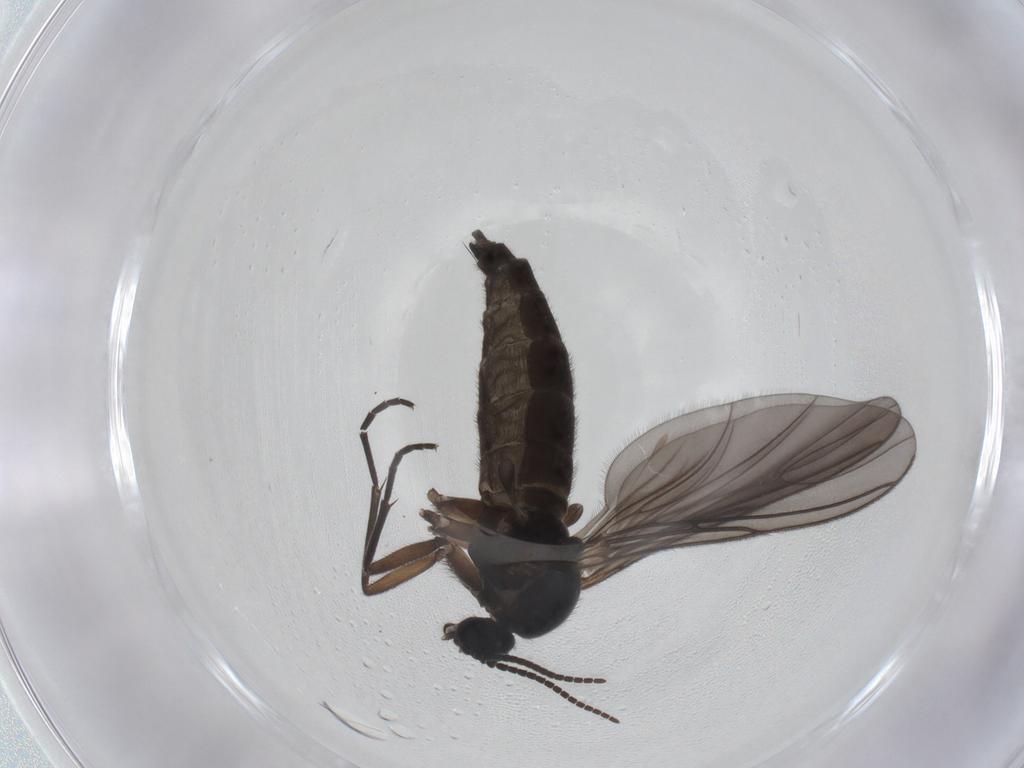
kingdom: Animalia
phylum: Arthropoda
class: Insecta
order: Diptera
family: Sciaridae
